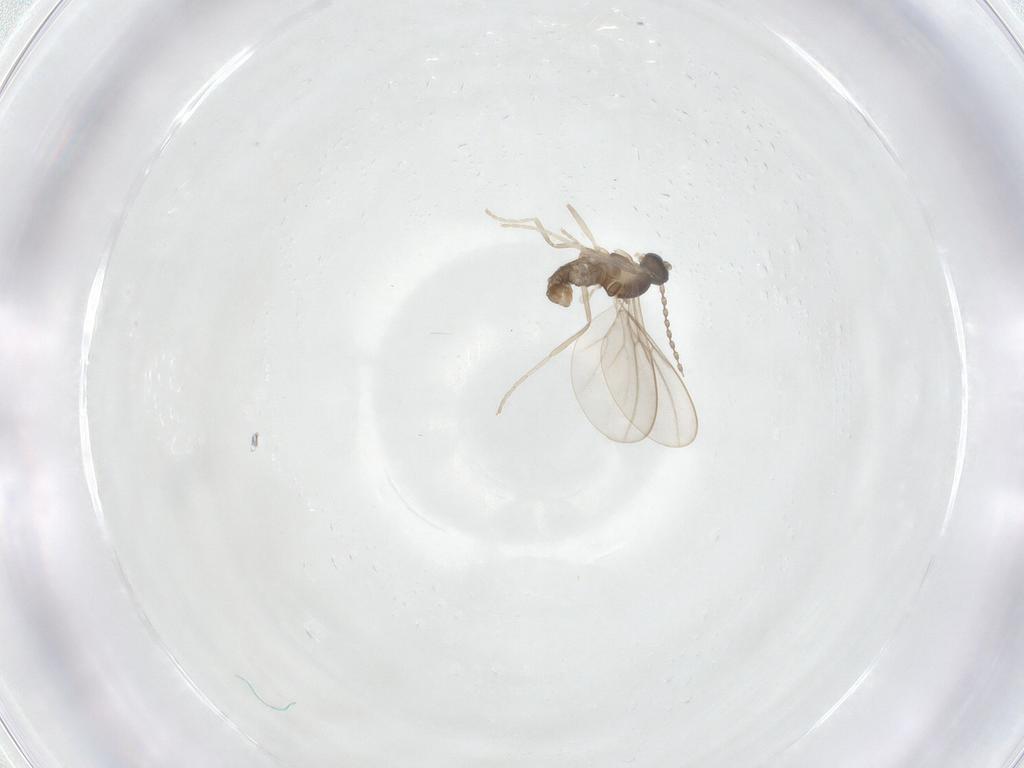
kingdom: Animalia
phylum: Arthropoda
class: Insecta
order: Diptera
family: Cecidomyiidae
